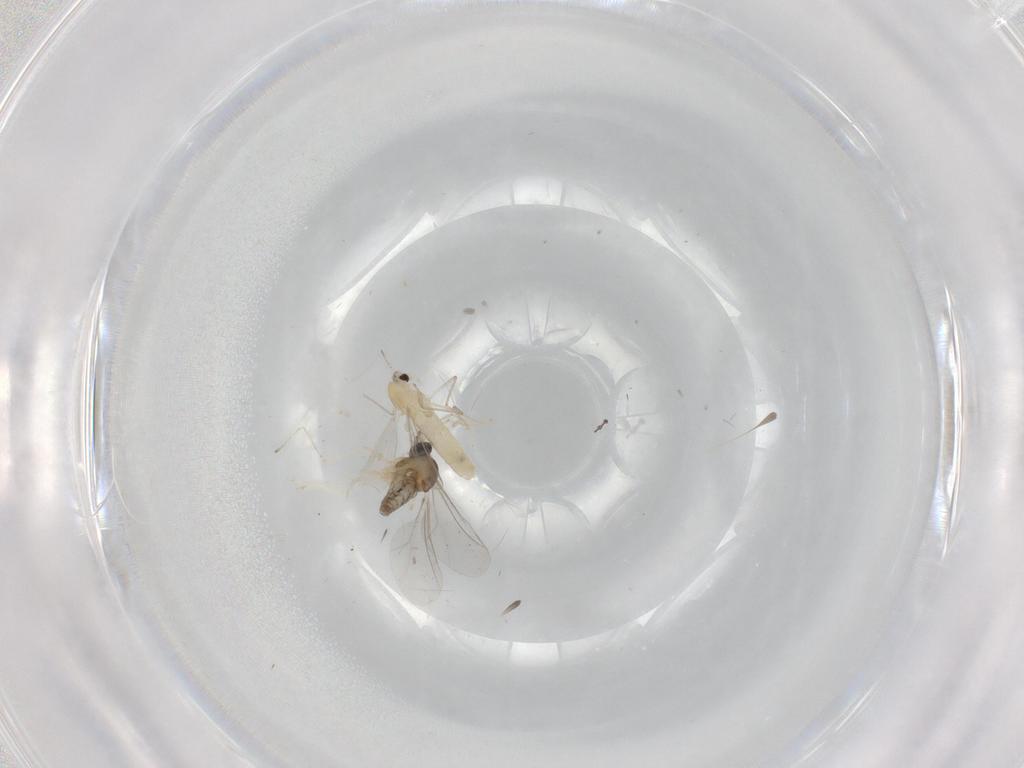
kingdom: Animalia
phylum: Arthropoda
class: Insecta
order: Diptera
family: Cecidomyiidae
